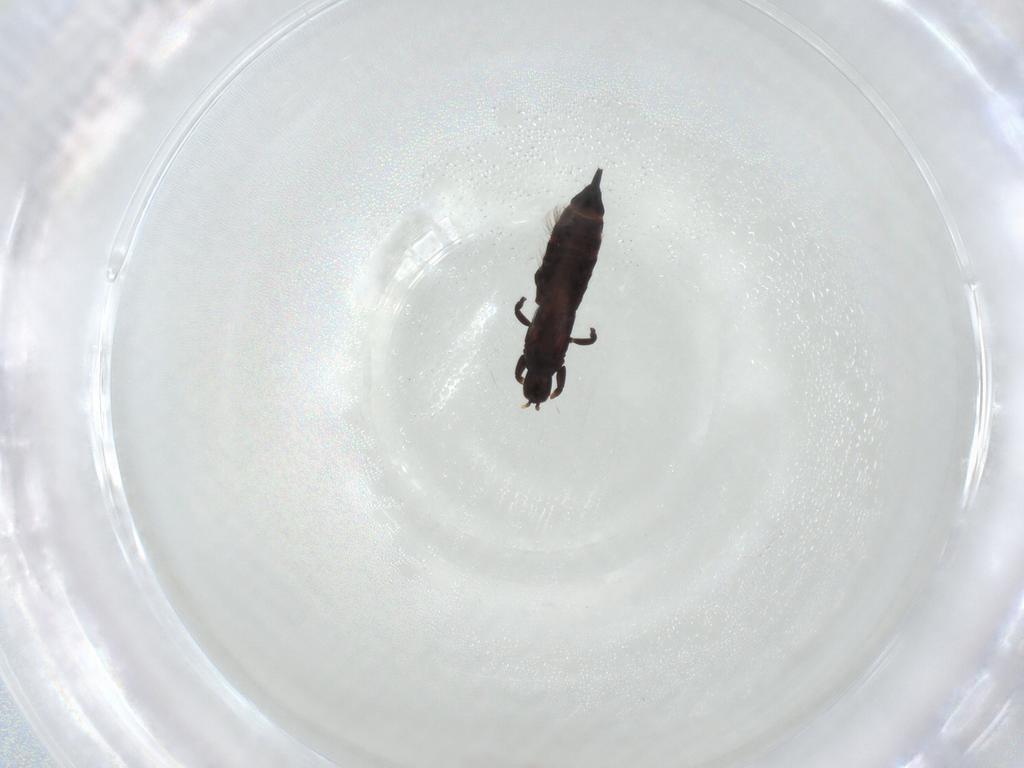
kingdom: Animalia
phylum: Arthropoda
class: Insecta
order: Thysanoptera
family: Phlaeothripidae
